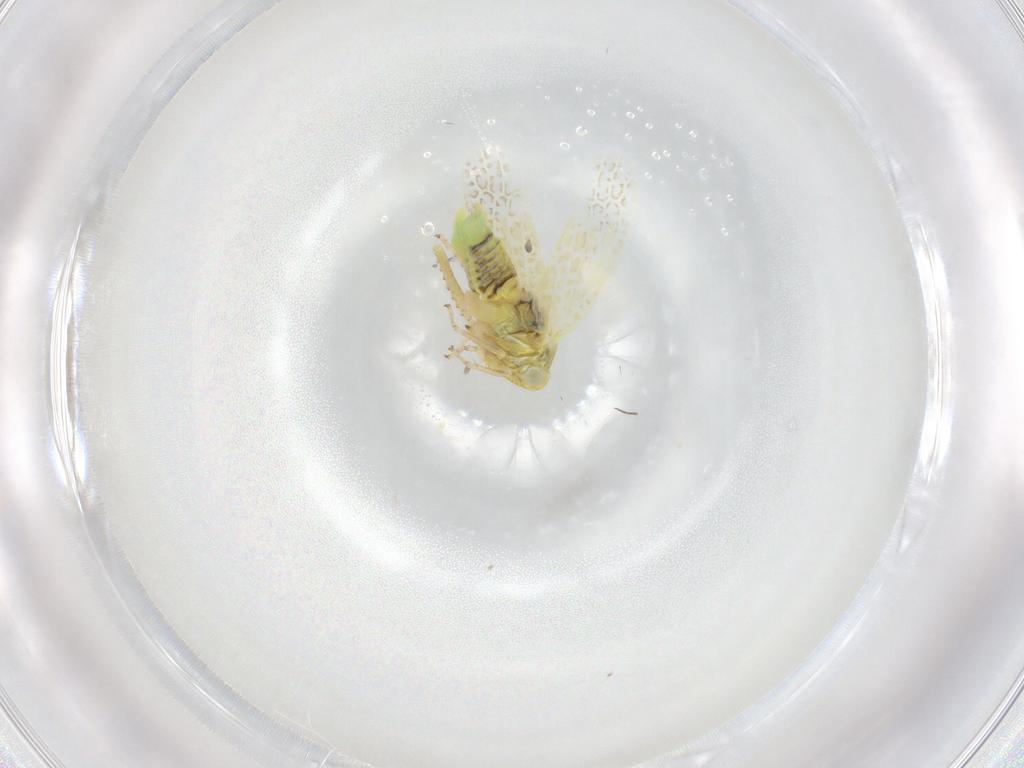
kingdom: Animalia
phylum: Arthropoda
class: Insecta
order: Hemiptera
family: Cicadellidae
